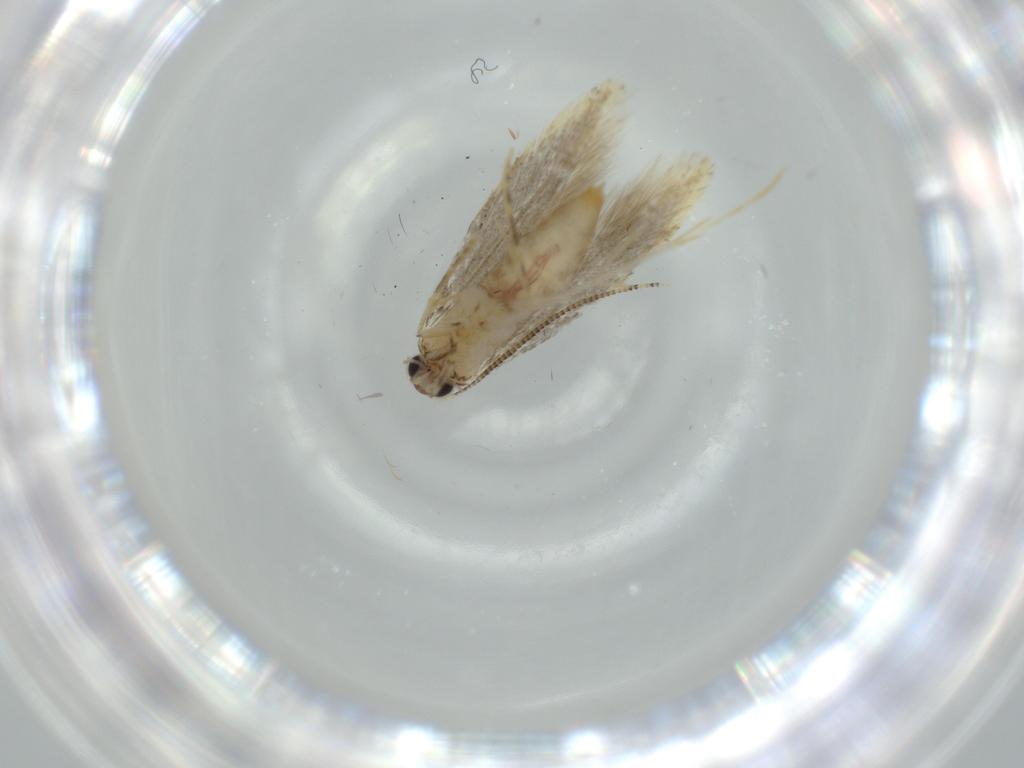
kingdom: Animalia
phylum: Arthropoda
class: Insecta
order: Lepidoptera
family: Tineidae
